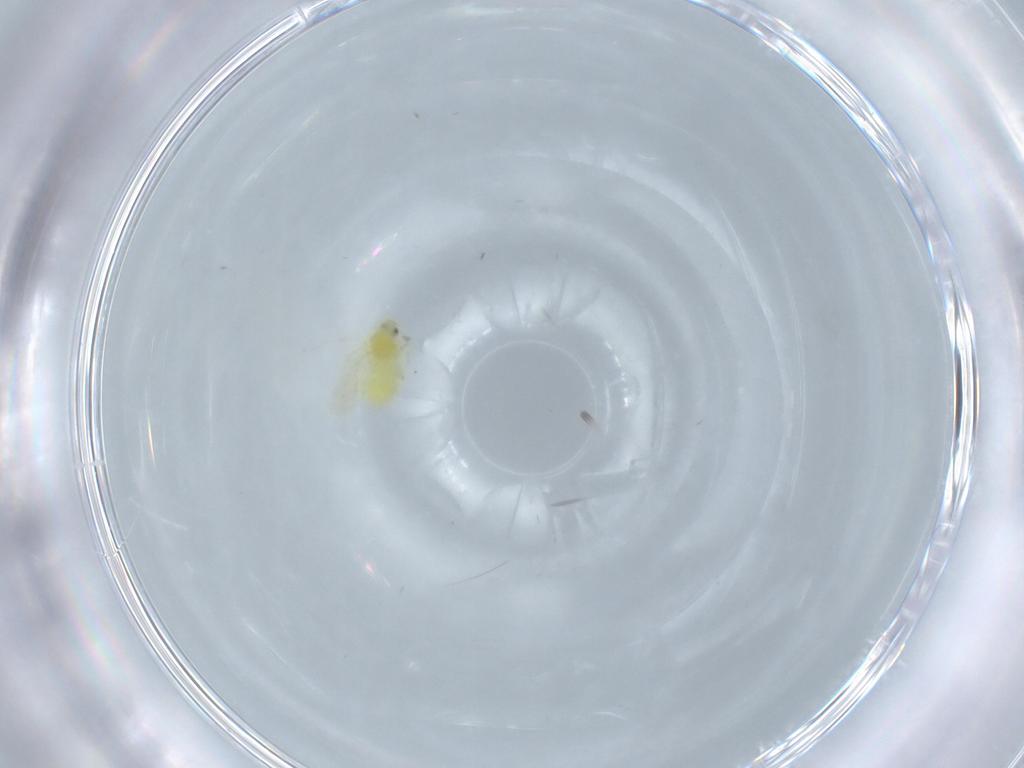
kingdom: Animalia
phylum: Arthropoda
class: Insecta
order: Hemiptera
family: Aleyrodidae
